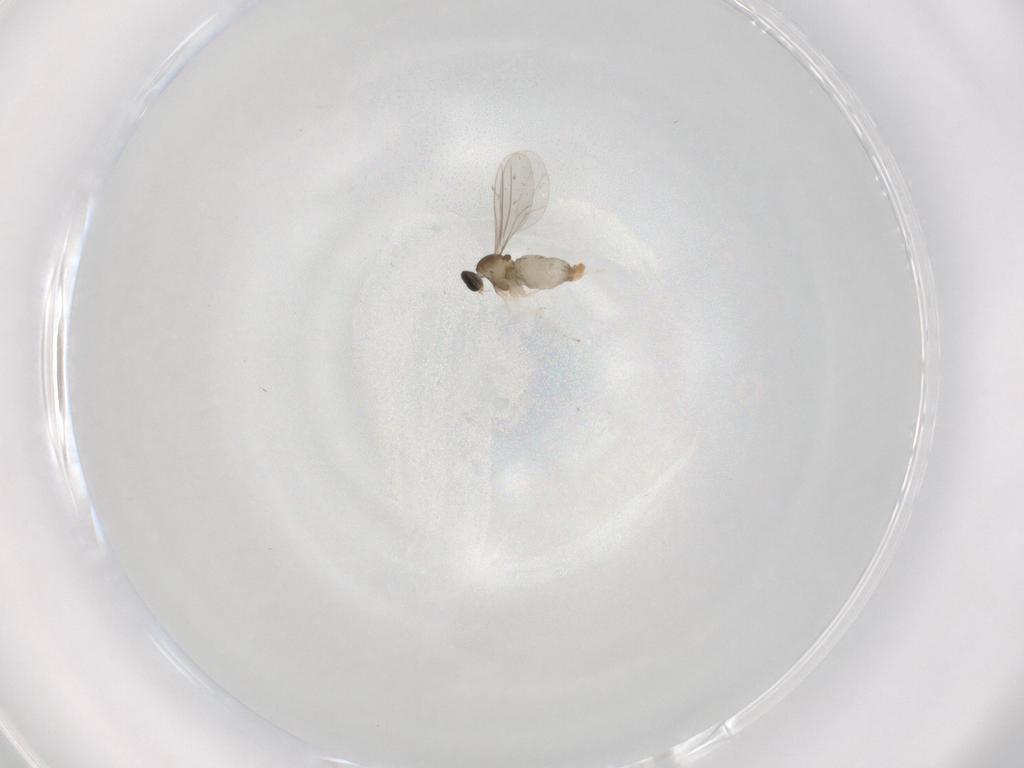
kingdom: Animalia
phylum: Arthropoda
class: Insecta
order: Diptera
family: Cecidomyiidae
